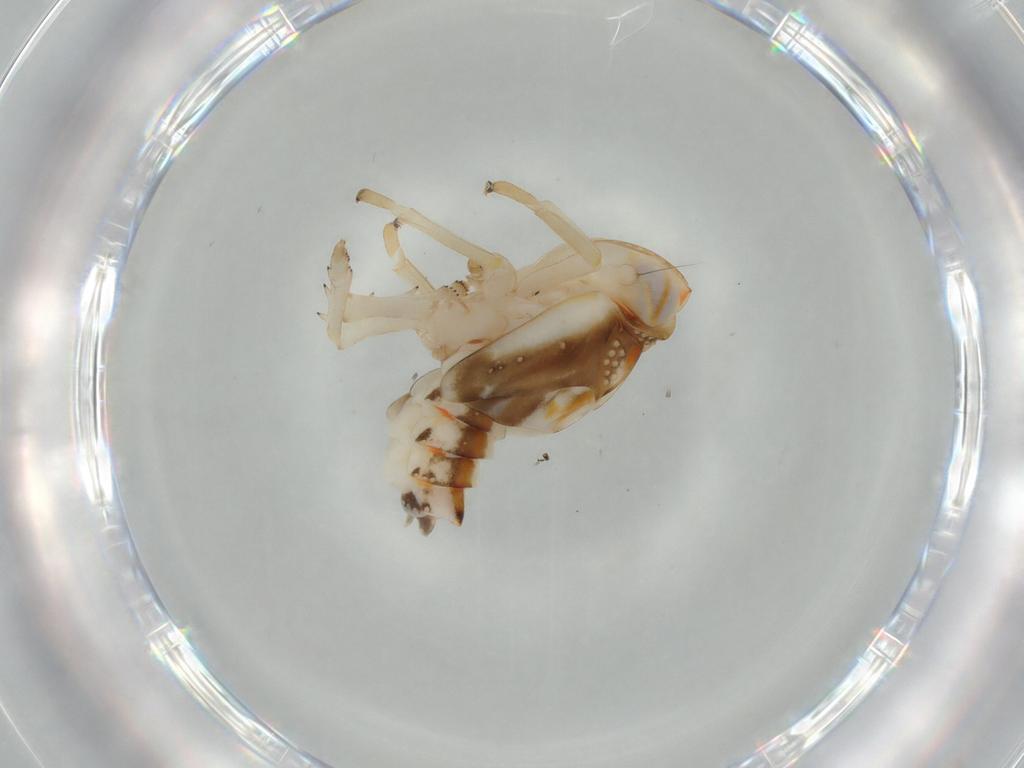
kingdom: Animalia
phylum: Arthropoda
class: Insecta
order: Hemiptera
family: Nogodinidae
